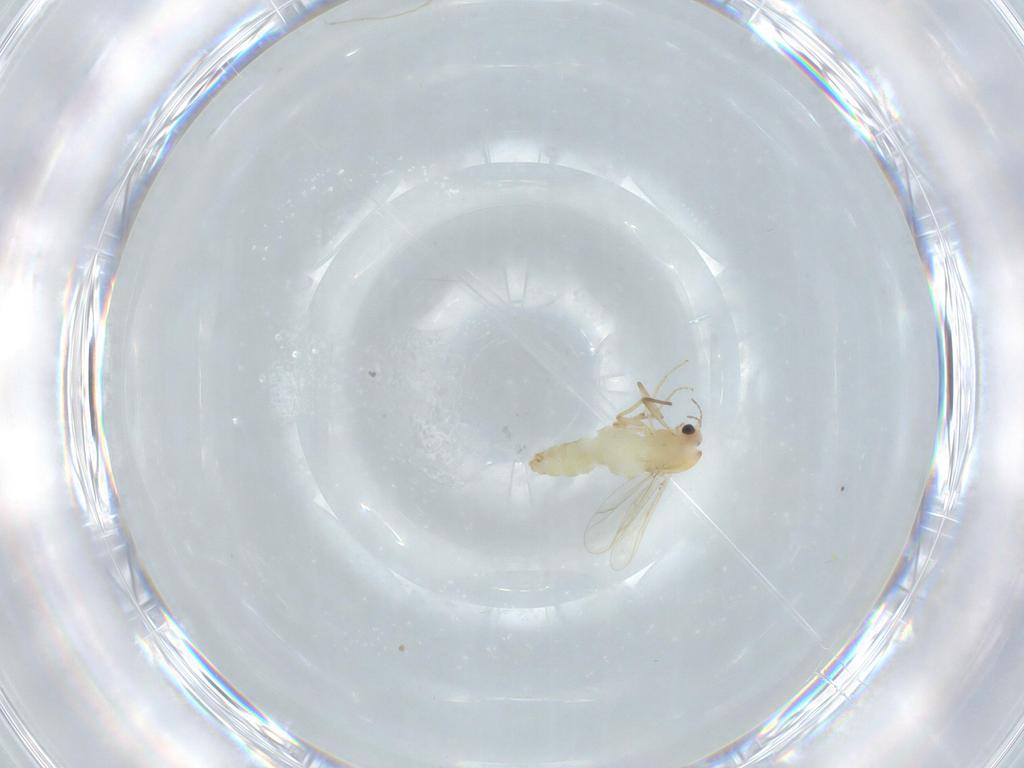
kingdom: Animalia
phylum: Arthropoda
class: Insecta
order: Diptera
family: Chironomidae
